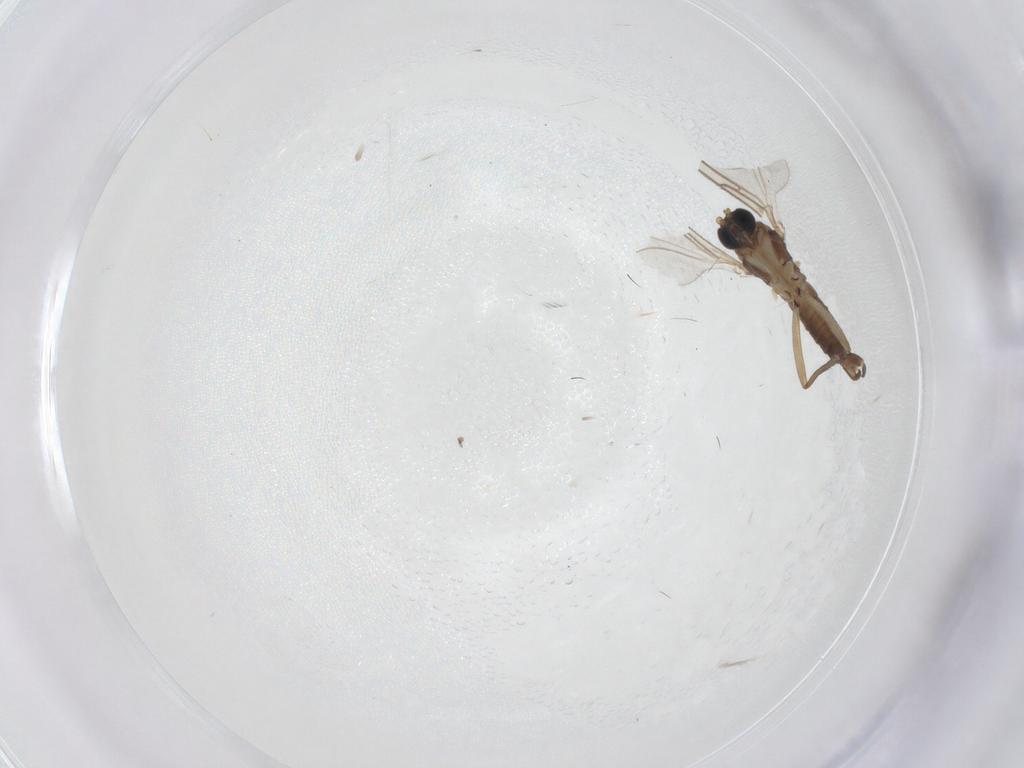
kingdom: Animalia
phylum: Arthropoda
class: Insecta
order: Diptera
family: Sciaridae
